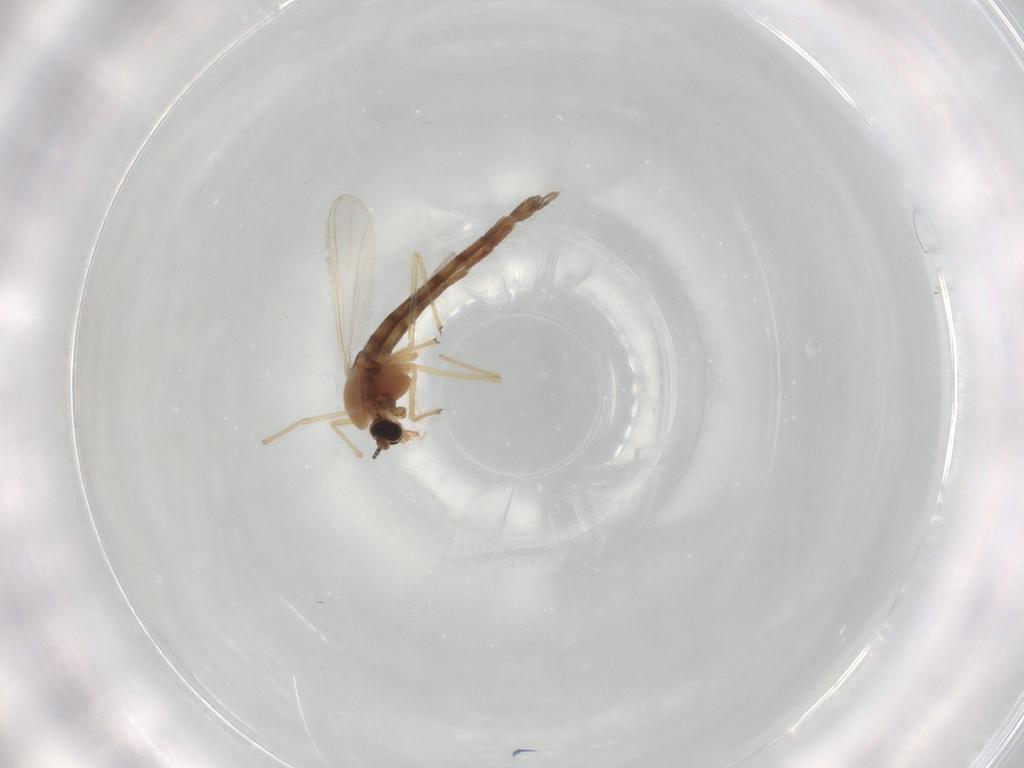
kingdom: Animalia
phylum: Arthropoda
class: Insecta
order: Diptera
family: Chironomidae
